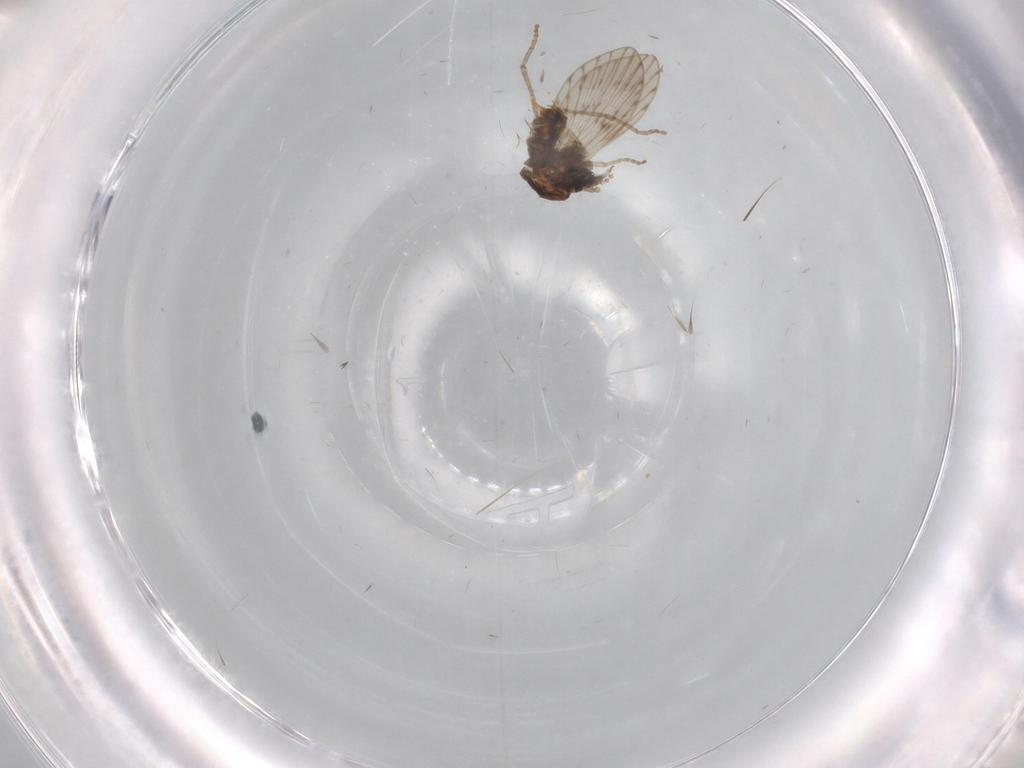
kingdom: Animalia
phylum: Arthropoda
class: Insecta
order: Diptera
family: Psychodidae
